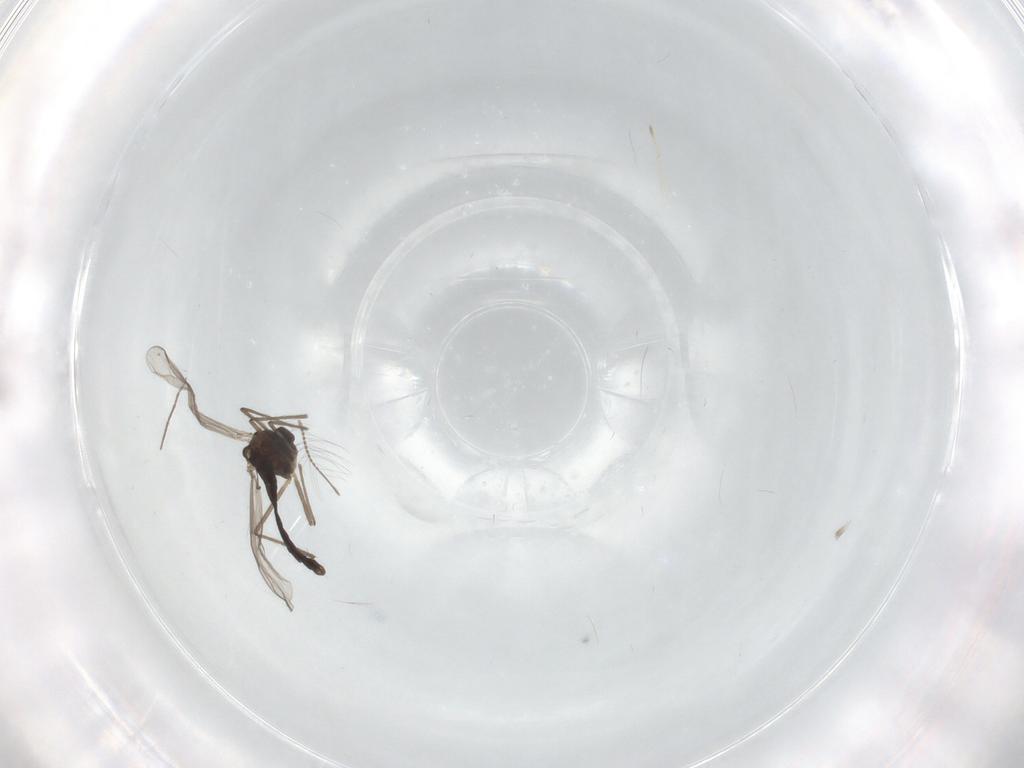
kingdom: Animalia
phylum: Arthropoda
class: Insecta
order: Diptera
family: Chironomidae
